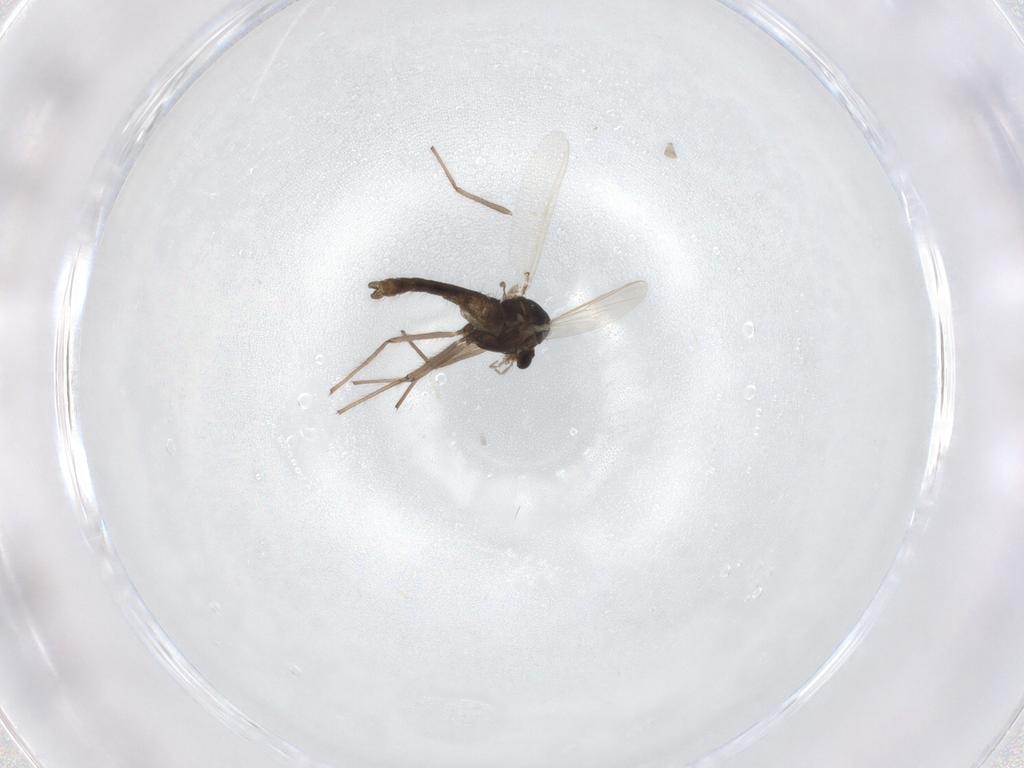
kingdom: Animalia
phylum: Arthropoda
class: Insecta
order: Diptera
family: Chironomidae
